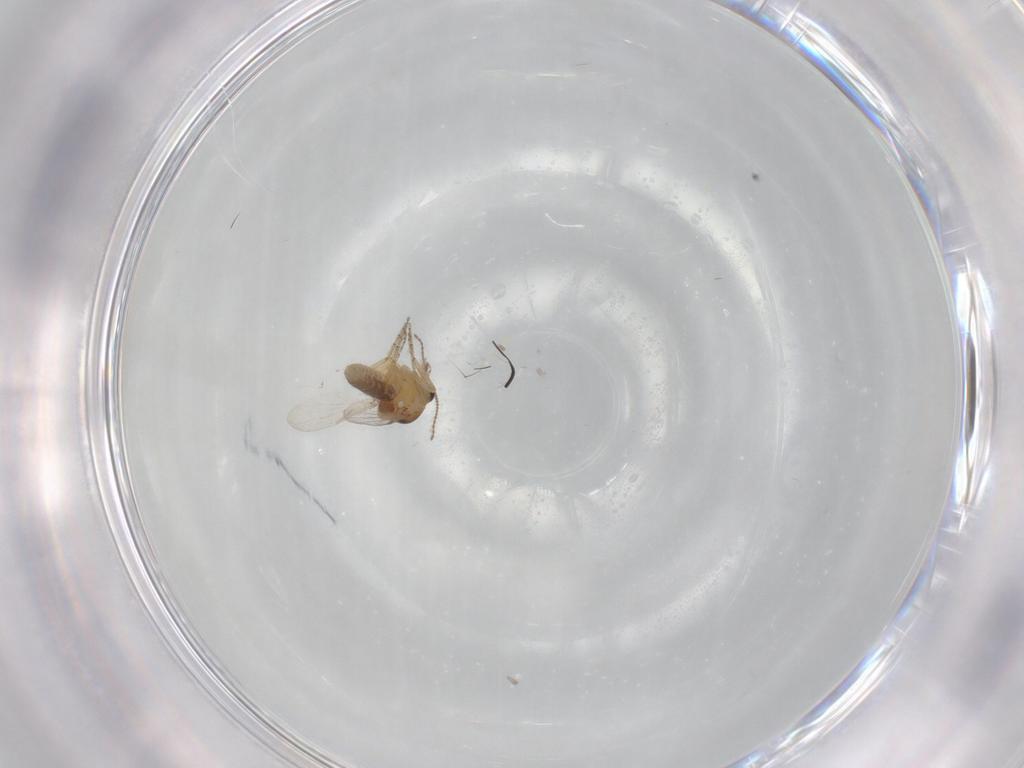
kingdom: Animalia
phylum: Arthropoda
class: Insecta
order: Diptera
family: Ceratopogonidae
